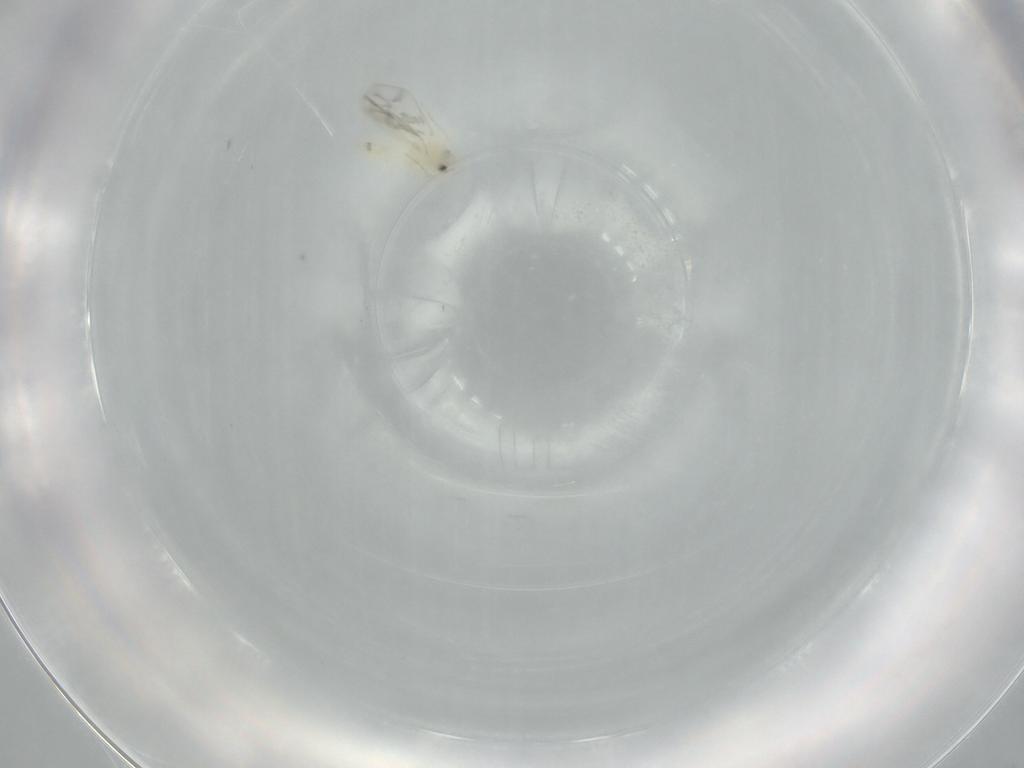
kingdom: Animalia
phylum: Arthropoda
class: Insecta
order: Hemiptera
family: Aleyrodidae
